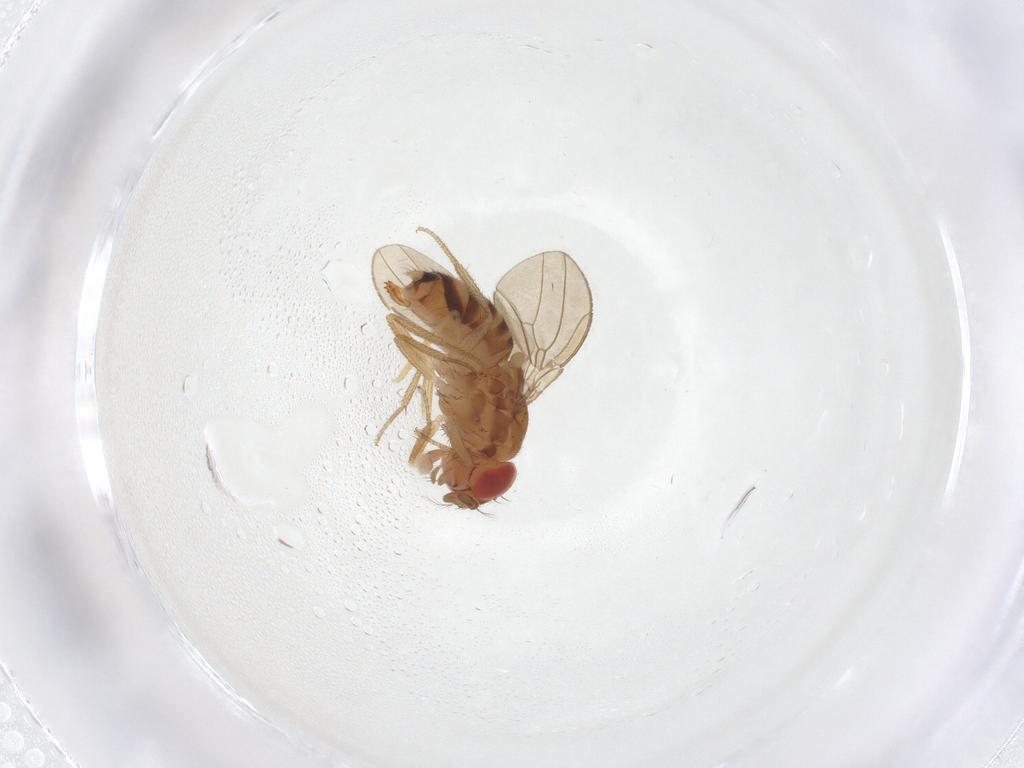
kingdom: Animalia
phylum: Arthropoda
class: Insecta
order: Diptera
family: Drosophilidae
